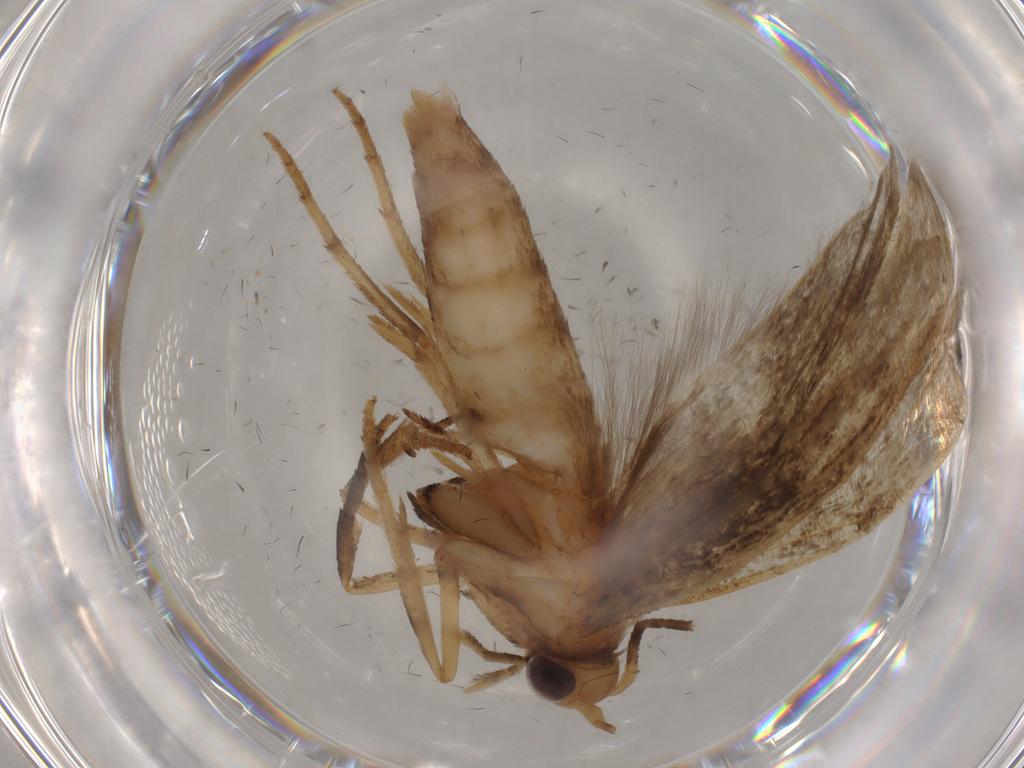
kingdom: Animalia
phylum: Arthropoda
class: Insecta
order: Lepidoptera
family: Yponomeutidae
